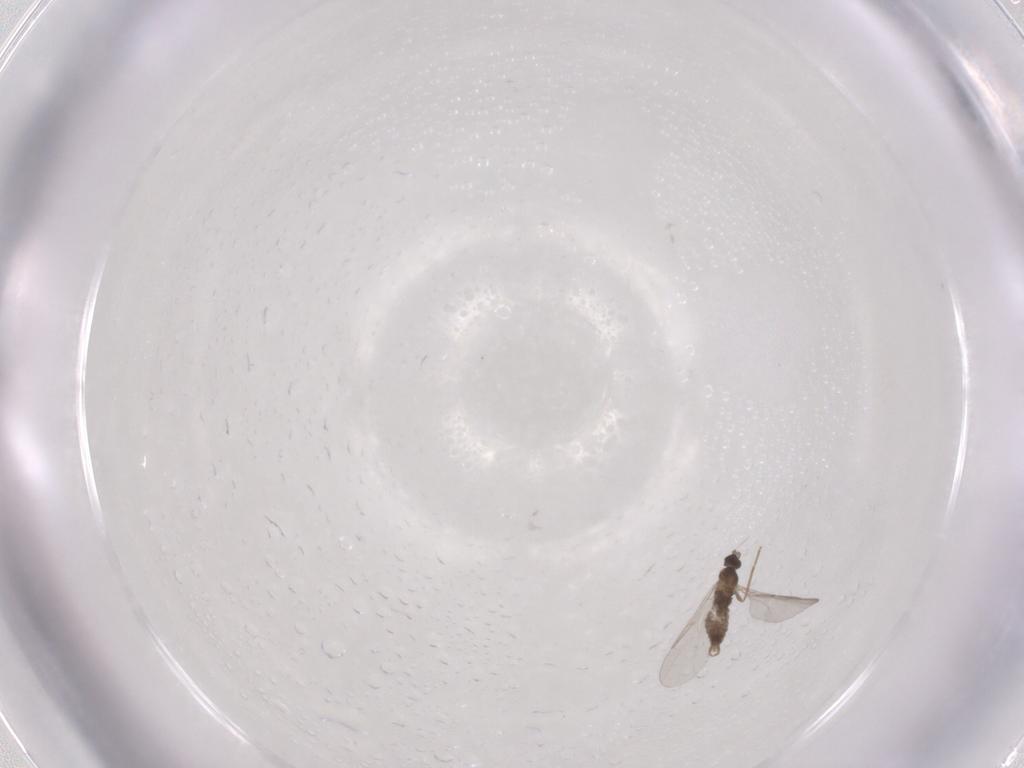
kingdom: Animalia
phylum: Arthropoda
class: Insecta
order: Diptera
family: Cecidomyiidae
